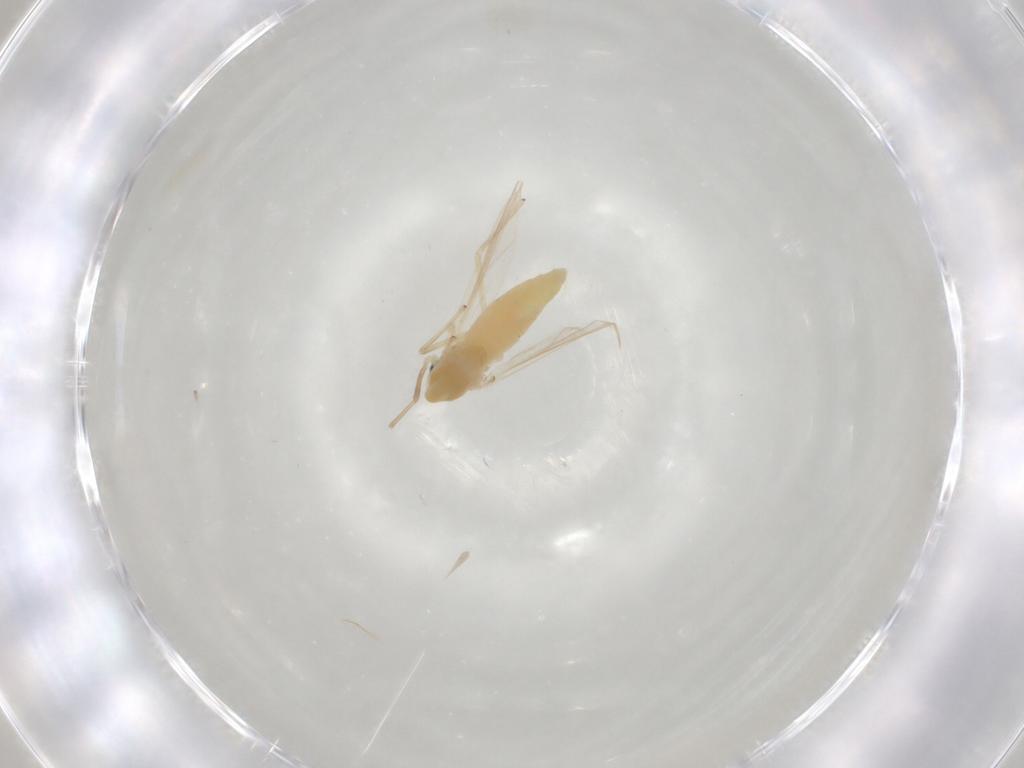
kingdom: Animalia
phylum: Arthropoda
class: Insecta
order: Diptera
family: Chironomidae
